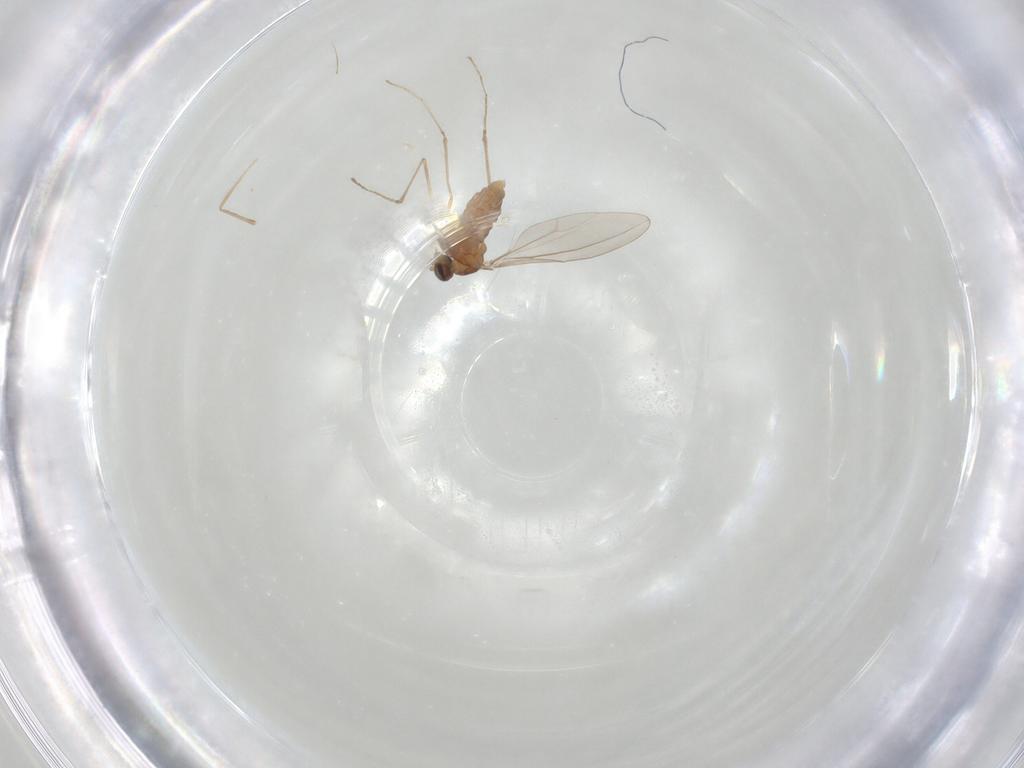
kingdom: Animalia
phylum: Arthropoda
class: Insecta
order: Diptera
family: Cecidomyiidae
